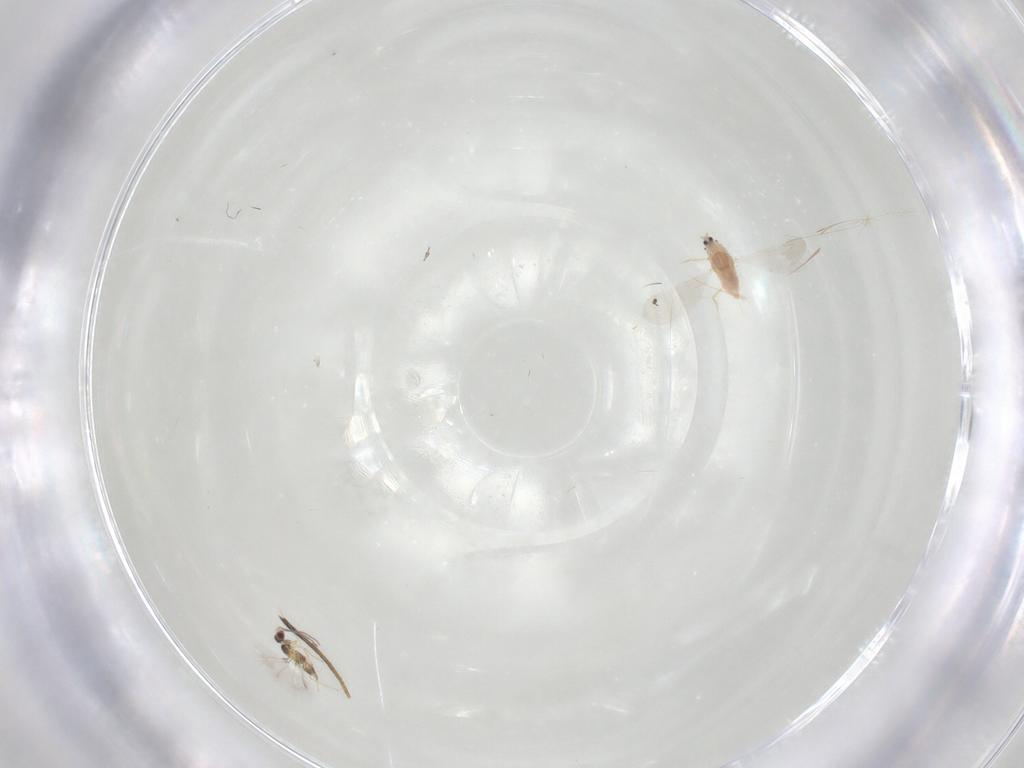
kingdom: Animalia
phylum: Arthropoda
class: Insecta
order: Lepidoptera
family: Geometridae
